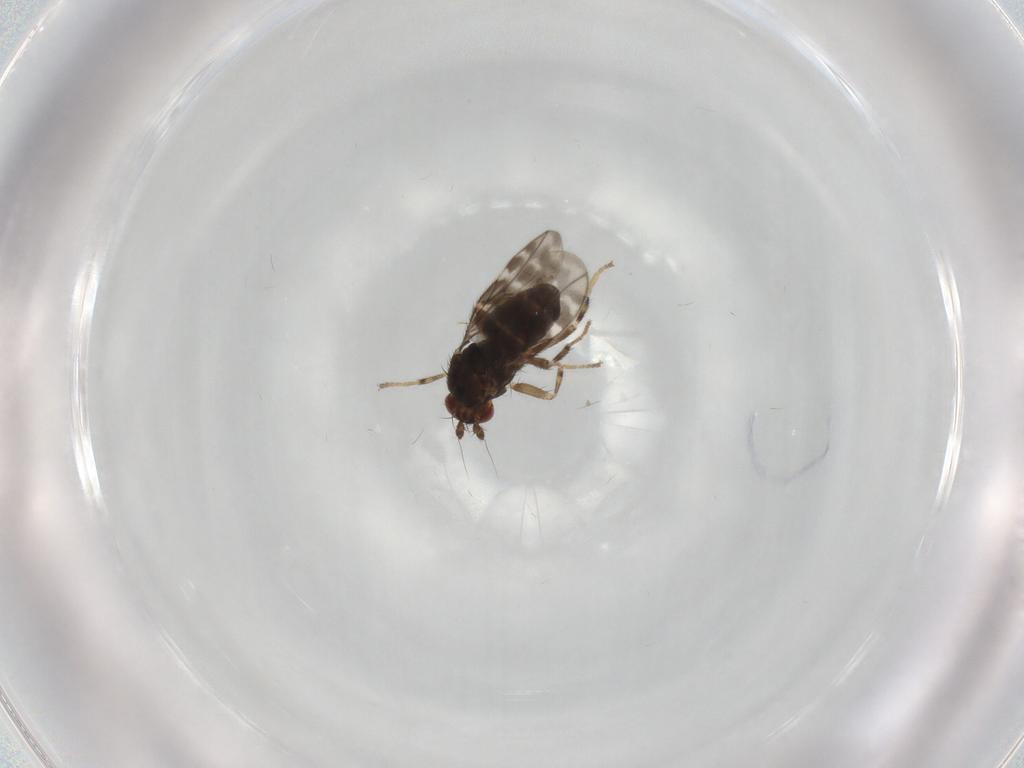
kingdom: Animalia
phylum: Arthropoda
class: Insecta
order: Diptera
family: Sphaeroceridae
